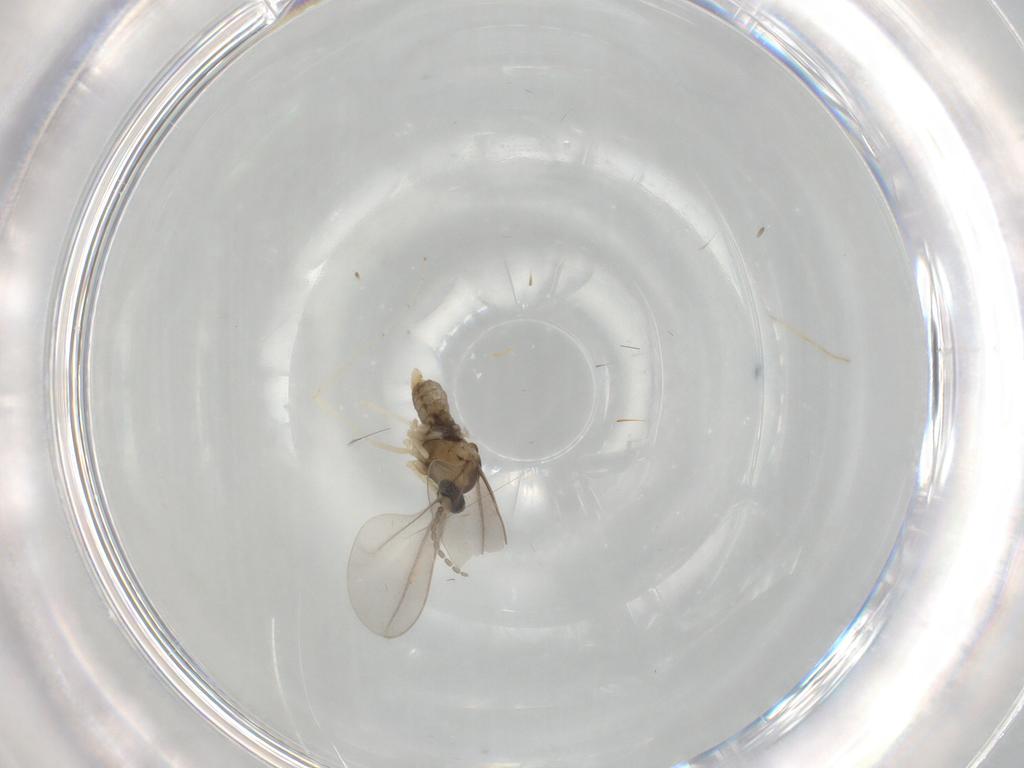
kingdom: Animalia
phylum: Arthropoda
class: Insecta
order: Diptera
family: Cecidomyiidae
